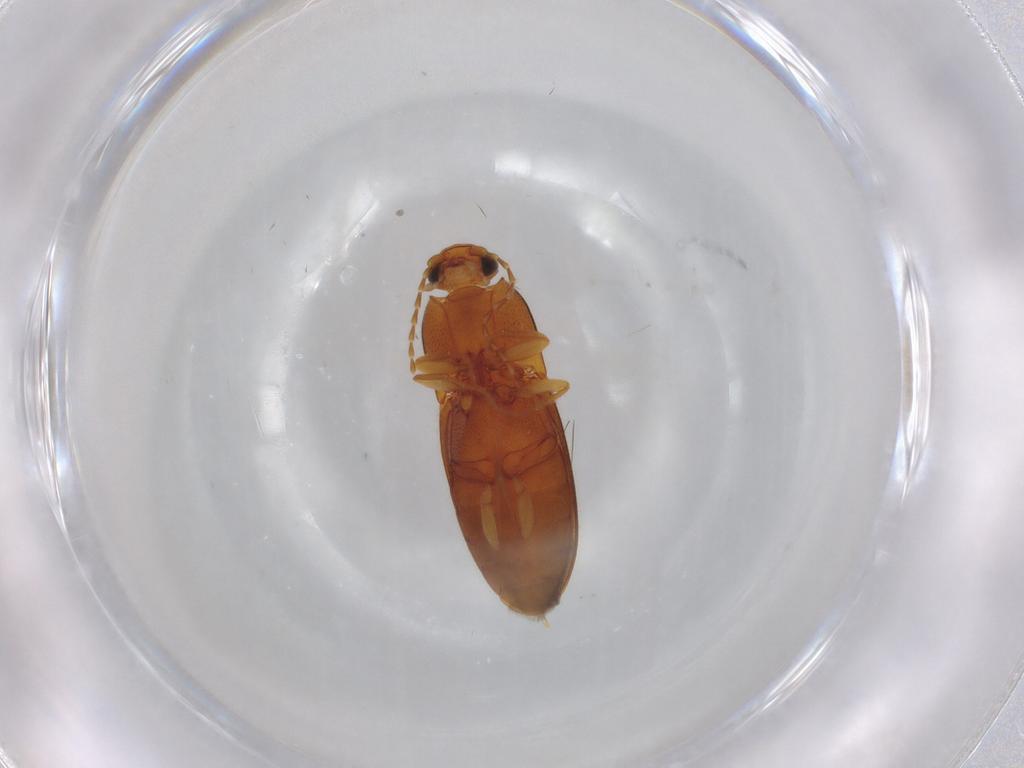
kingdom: Animalia
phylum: Arthropoda
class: Insecta
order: Coleoptera
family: Elateridae
